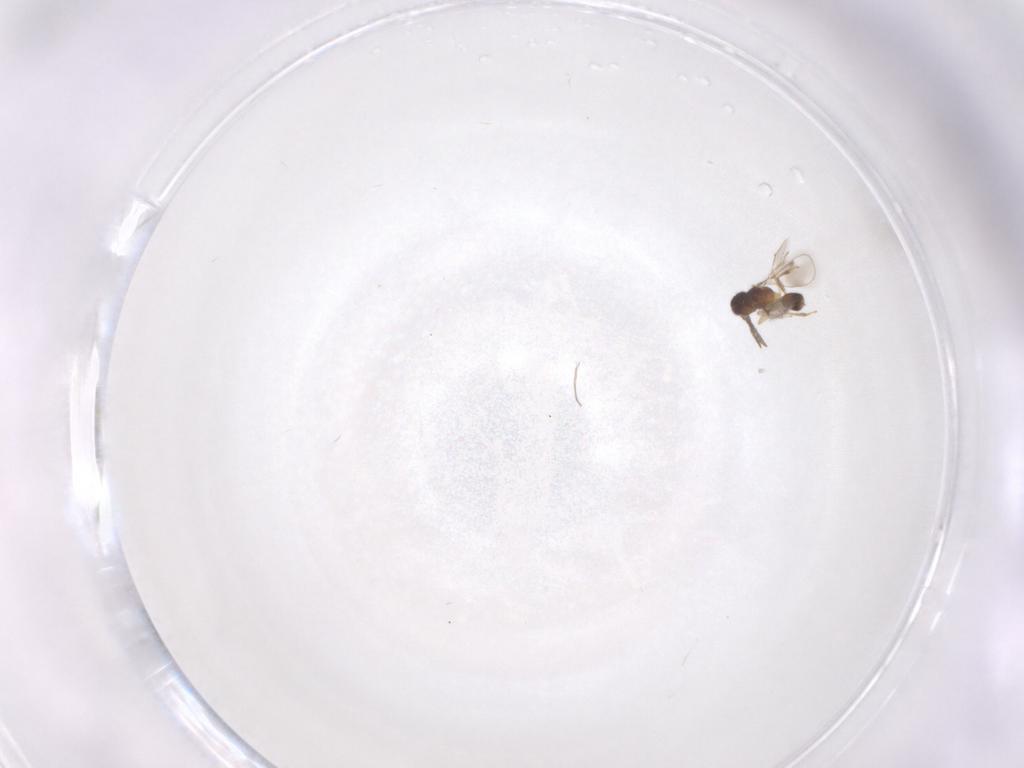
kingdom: Animalia
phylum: Arthropoda
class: Insecta
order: Hymenoptera
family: Pteromalidae
